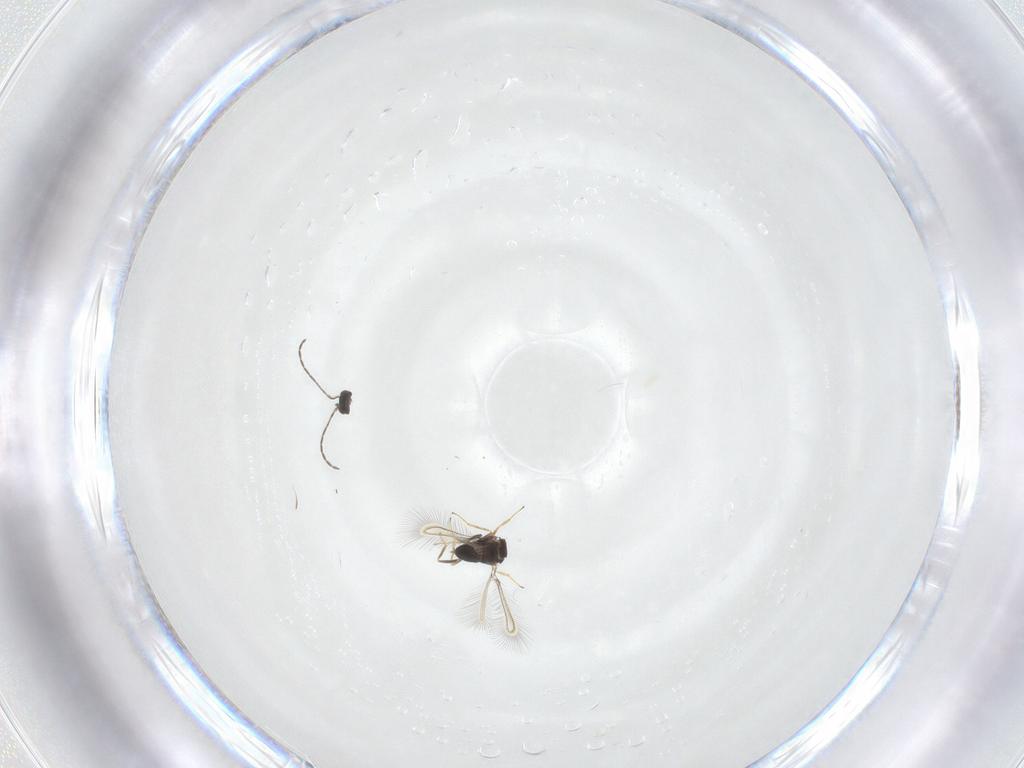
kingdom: Animalia
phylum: Arthropoda
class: Insecta
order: Hymenoptera
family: Mymaridae
